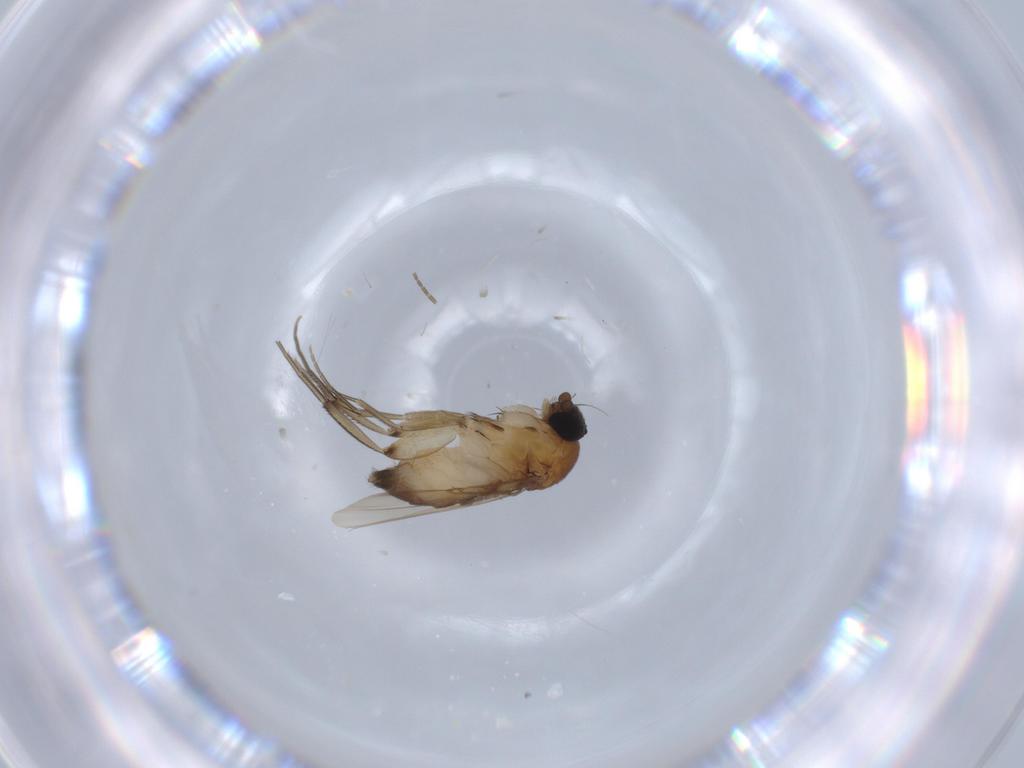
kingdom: Animalia
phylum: Arthropoda
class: Insecta
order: Diptera
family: Phoridae
